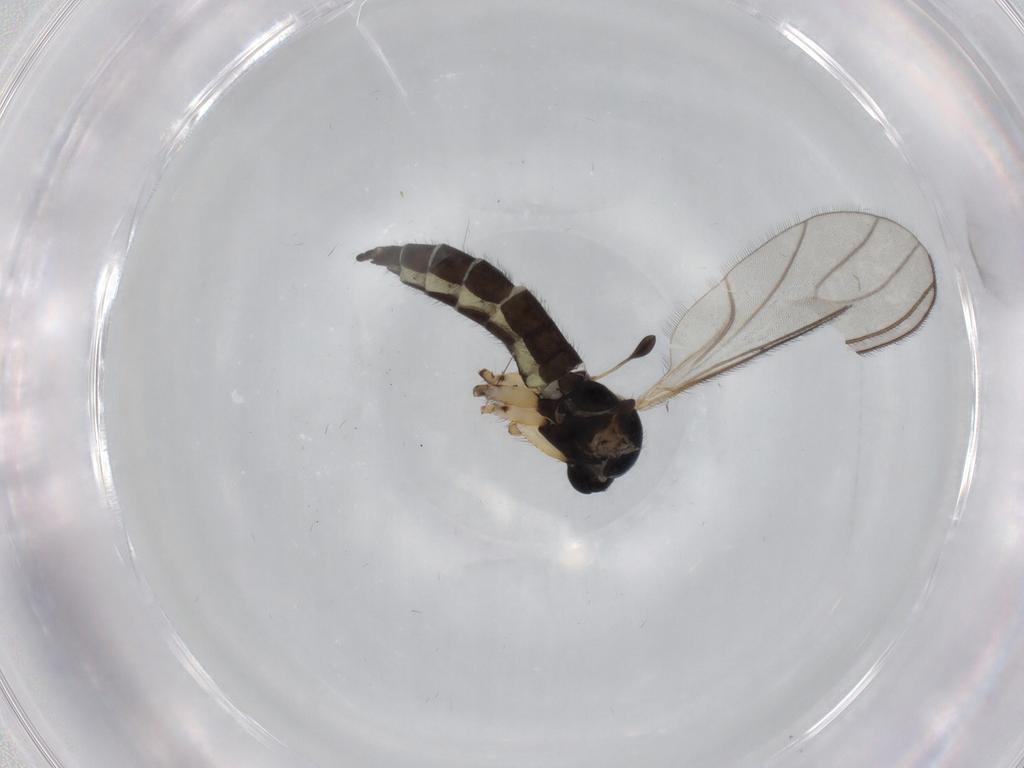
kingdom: Animalia
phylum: Arthropoda
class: Insecta
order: Diptera
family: Sciaridae
